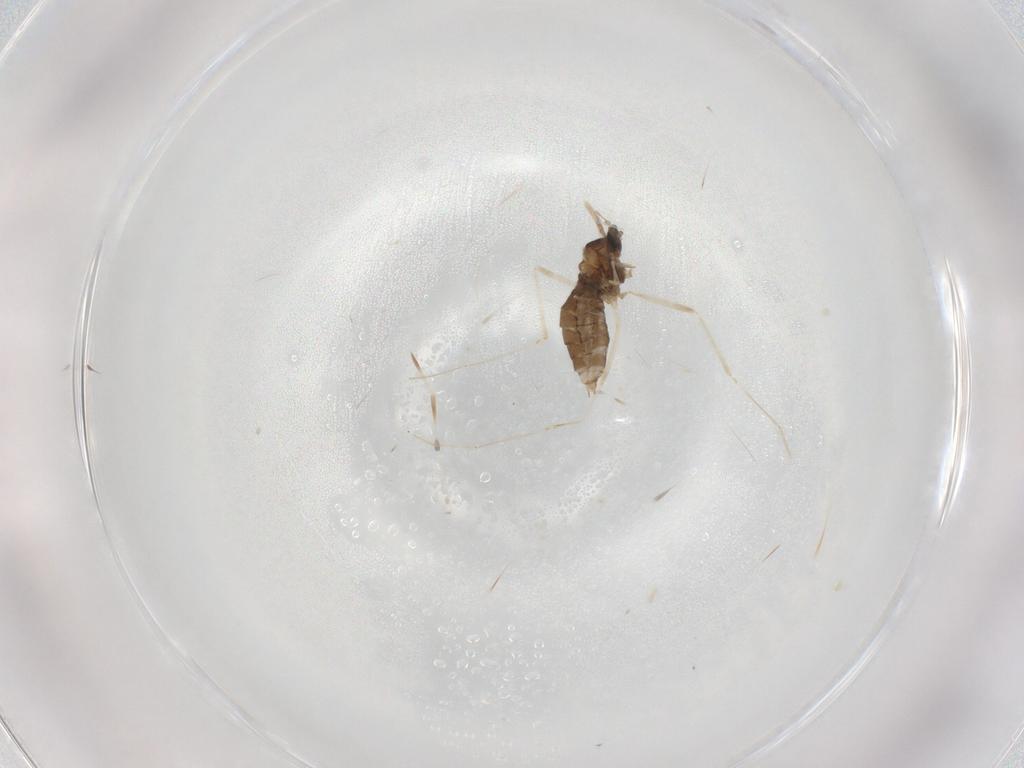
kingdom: Animalia
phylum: Arthropoda
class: Insecta
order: Diptera
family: Cecidomyiidae
